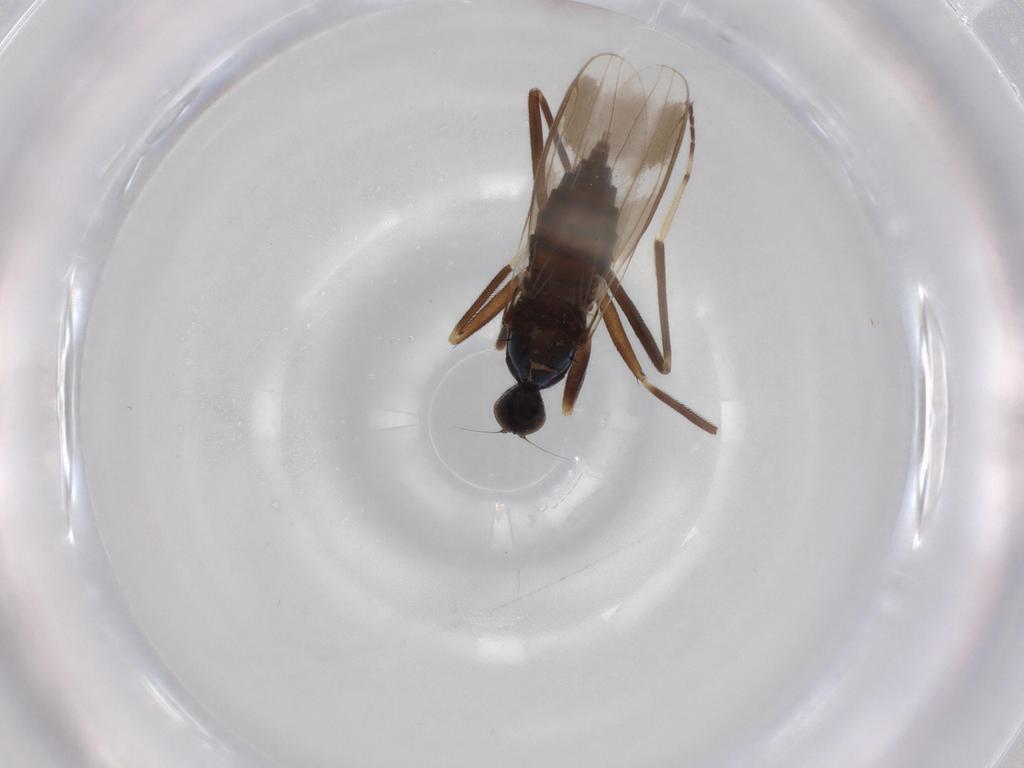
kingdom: Animalia
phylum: Arthropoda
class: Insecta
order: Diptera
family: Hybotidae
